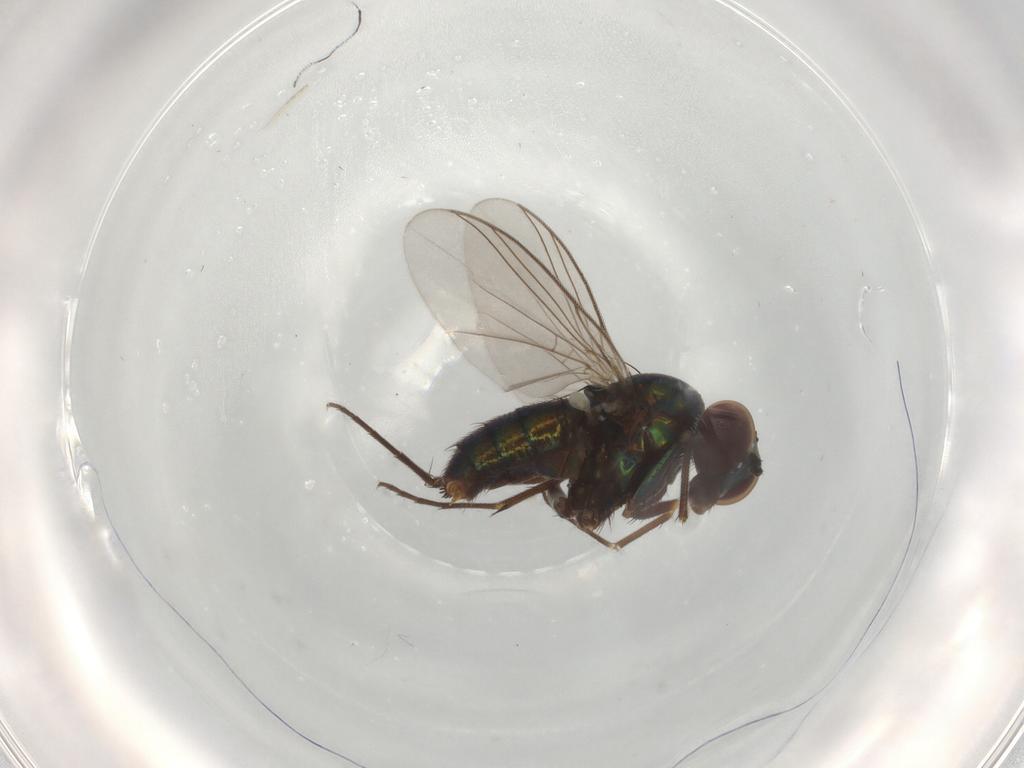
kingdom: Animalia
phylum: Arthropoda
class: Insecta
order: Diptera
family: Dolichopodidae
